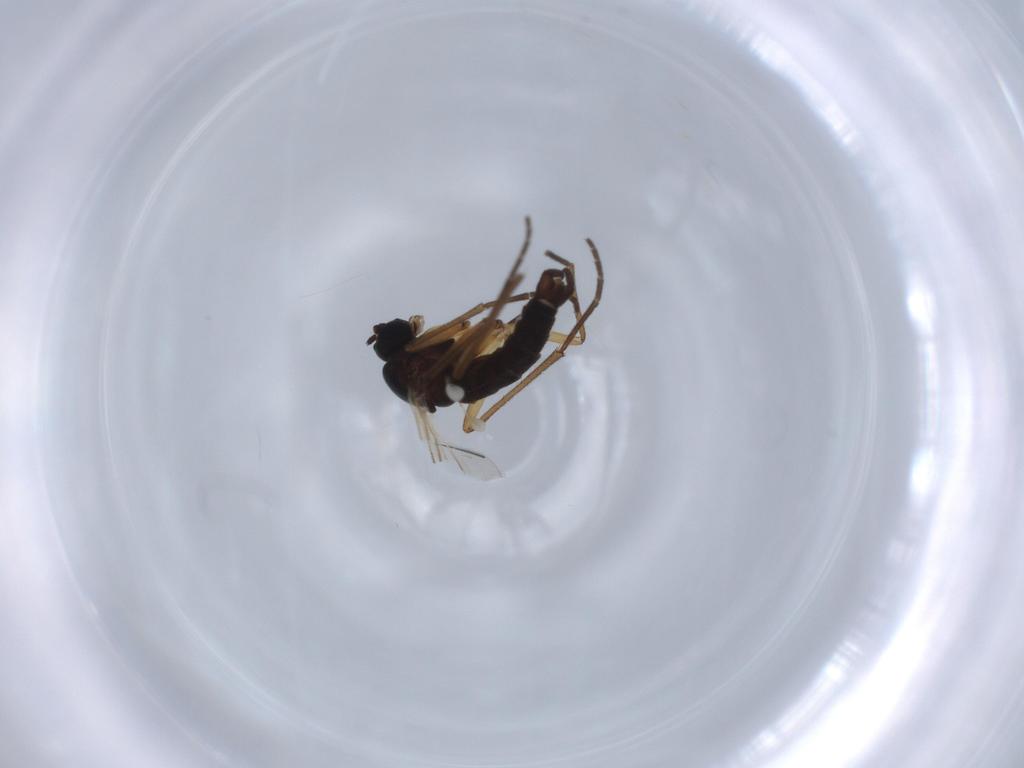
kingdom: Animalia
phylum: Arthropoda
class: Insecta
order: Diptera
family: Sciaridae
